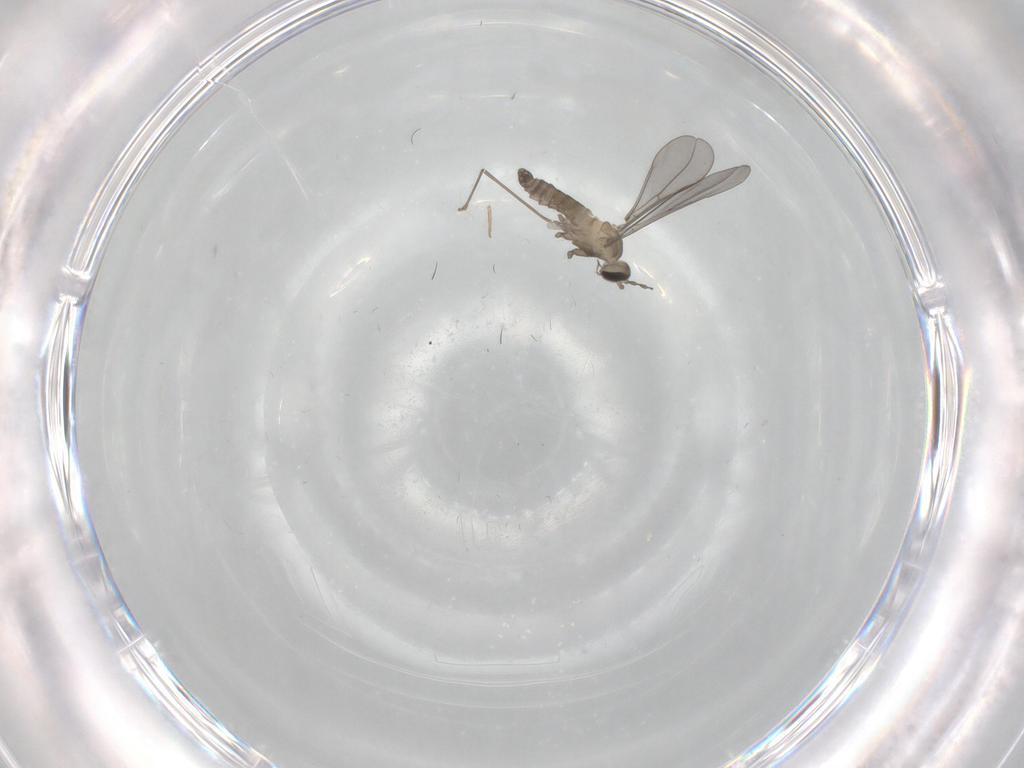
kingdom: Animalia
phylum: Arthropoda
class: Insecta
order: Diptera
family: Cecidomyiidae
